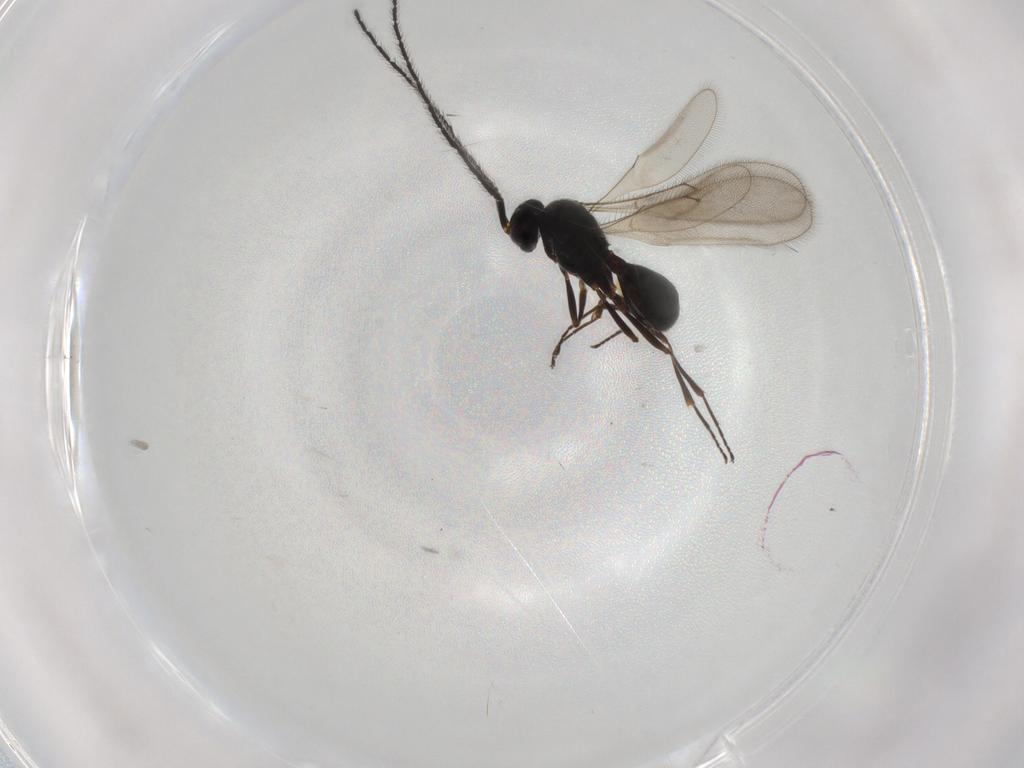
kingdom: Animalia
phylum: Arthropoda
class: Insecta
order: Hymenoptera
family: Scelionidae
